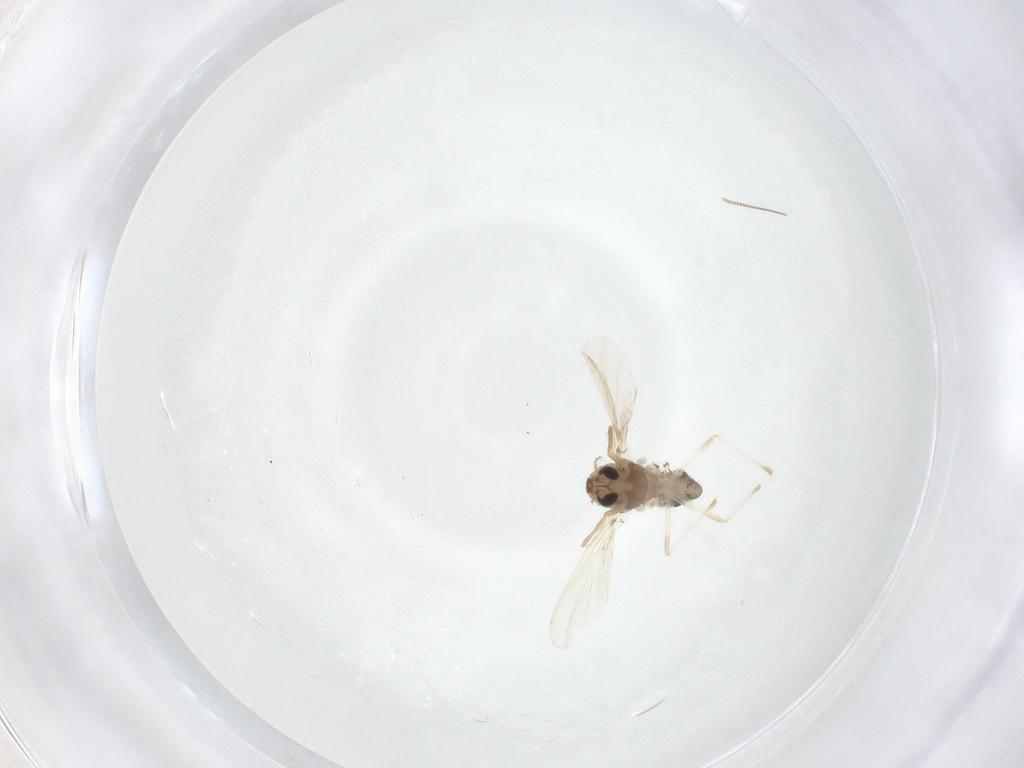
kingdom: Animalia
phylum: Arthropoda
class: Insecta
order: Diptera
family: Chironomidae
